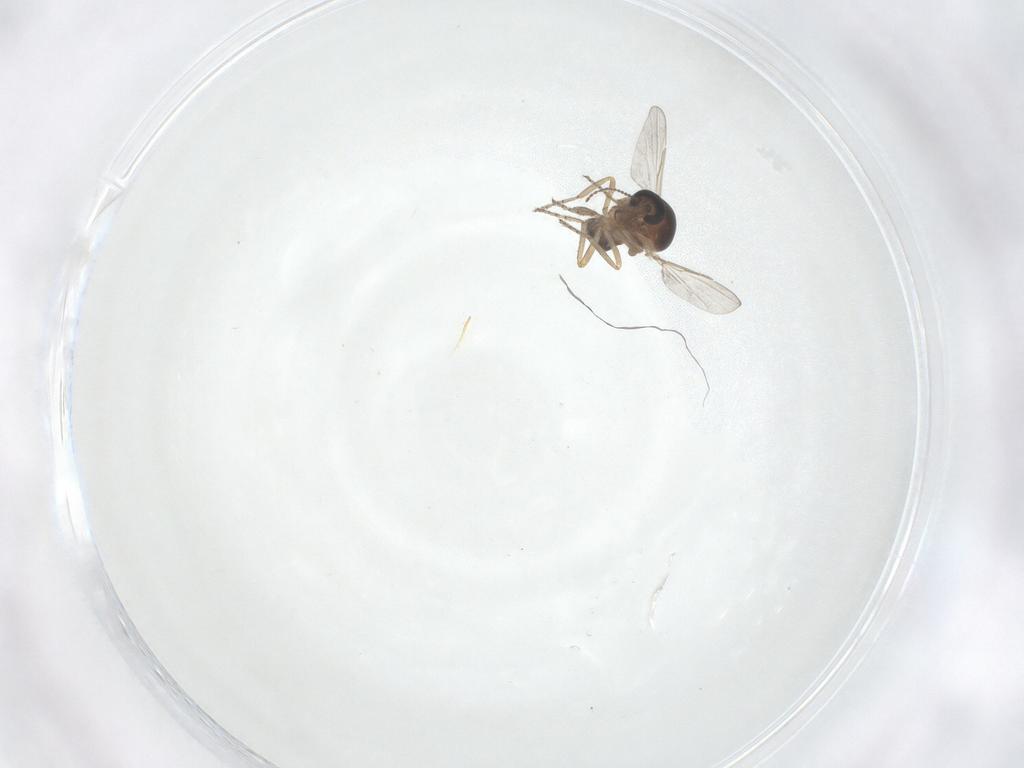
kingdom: Animalia
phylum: Arthropoda
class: Insecta
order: Diptera
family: Ceratopogonidae
